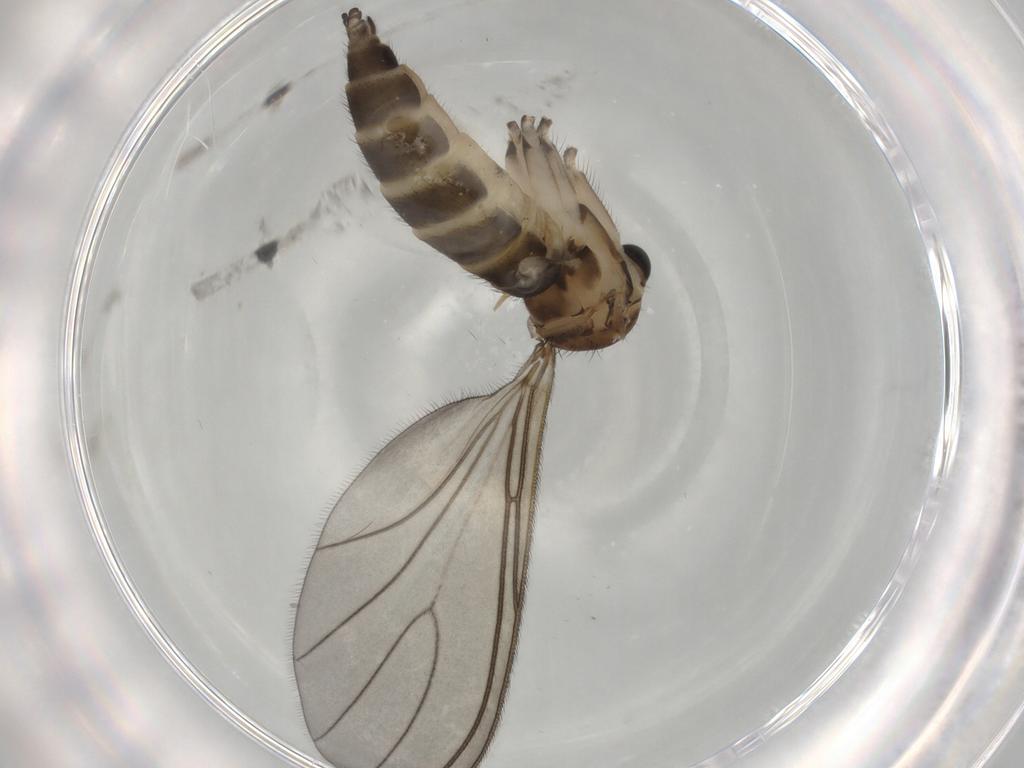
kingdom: Animalia
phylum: Arthropoda
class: Insecta
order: Diptera
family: Sciaridae
